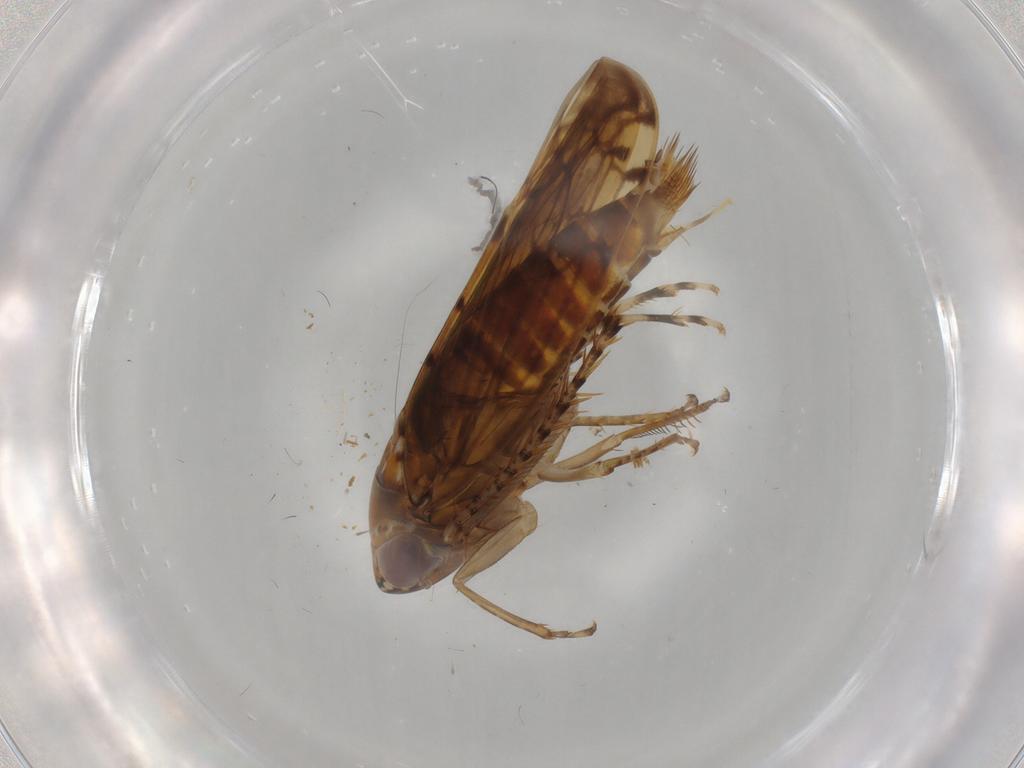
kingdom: Animalia
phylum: Arthropoda
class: Insecta
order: Hemiptera
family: Cicadellidae
